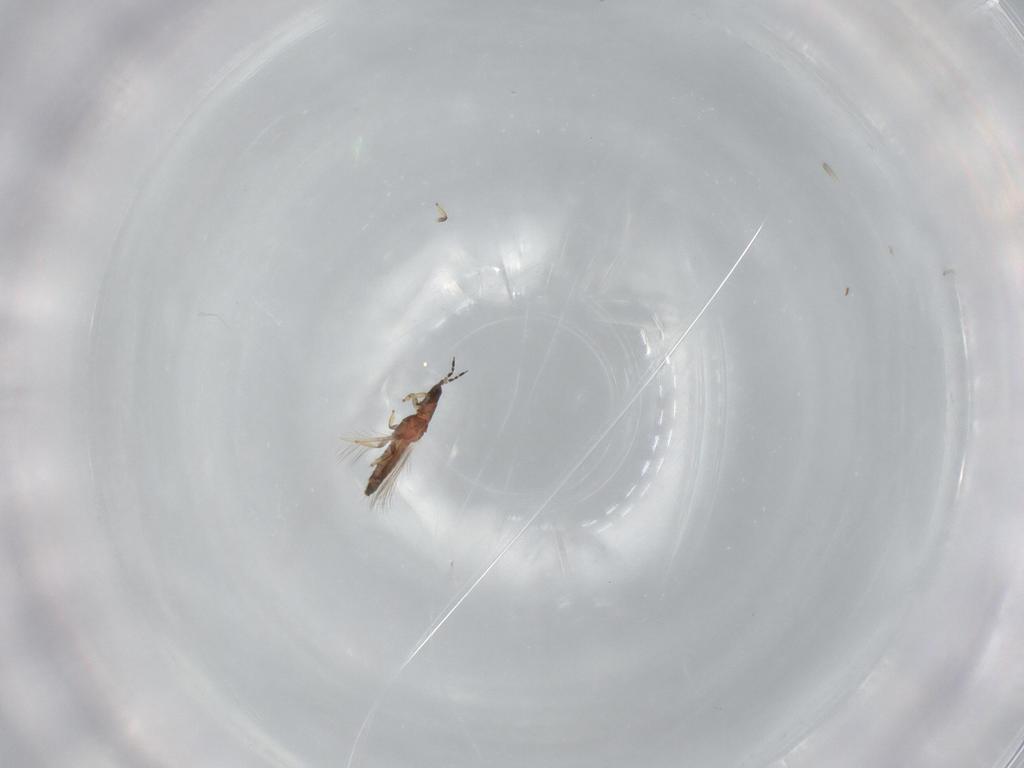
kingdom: Animalia
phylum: Arthropoda
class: Insecta
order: Thysanoptera
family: Thripidae
